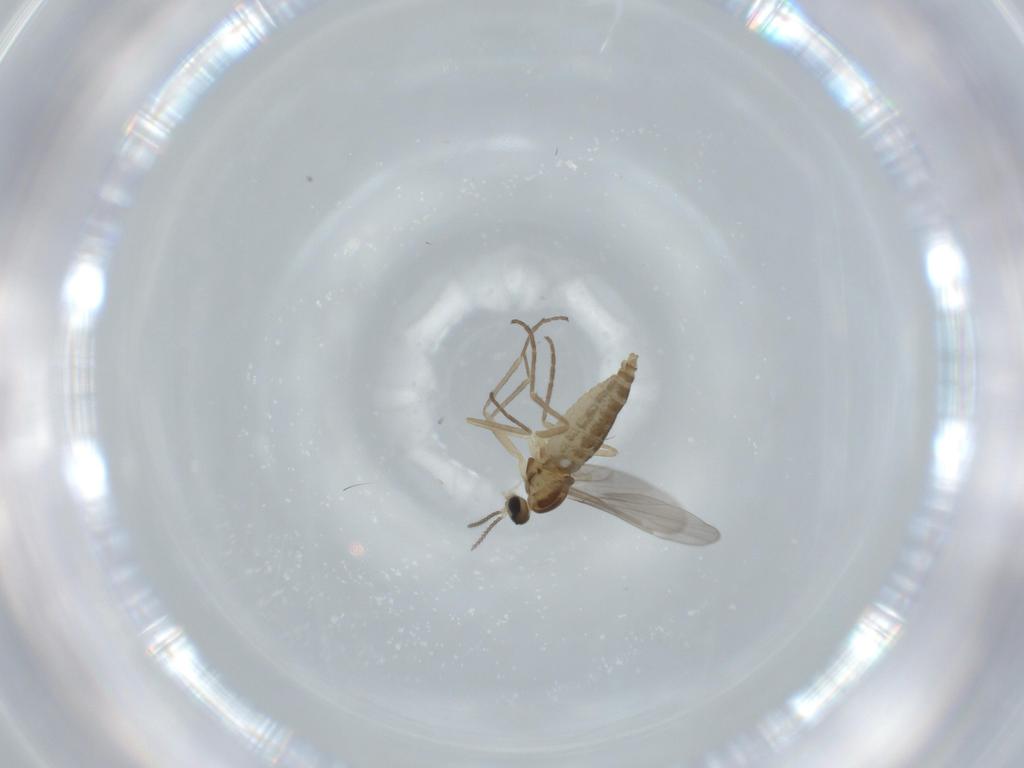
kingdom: Animalia
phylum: Arthropoda
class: Insecta
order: Diptera
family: Cecidomyiidae
